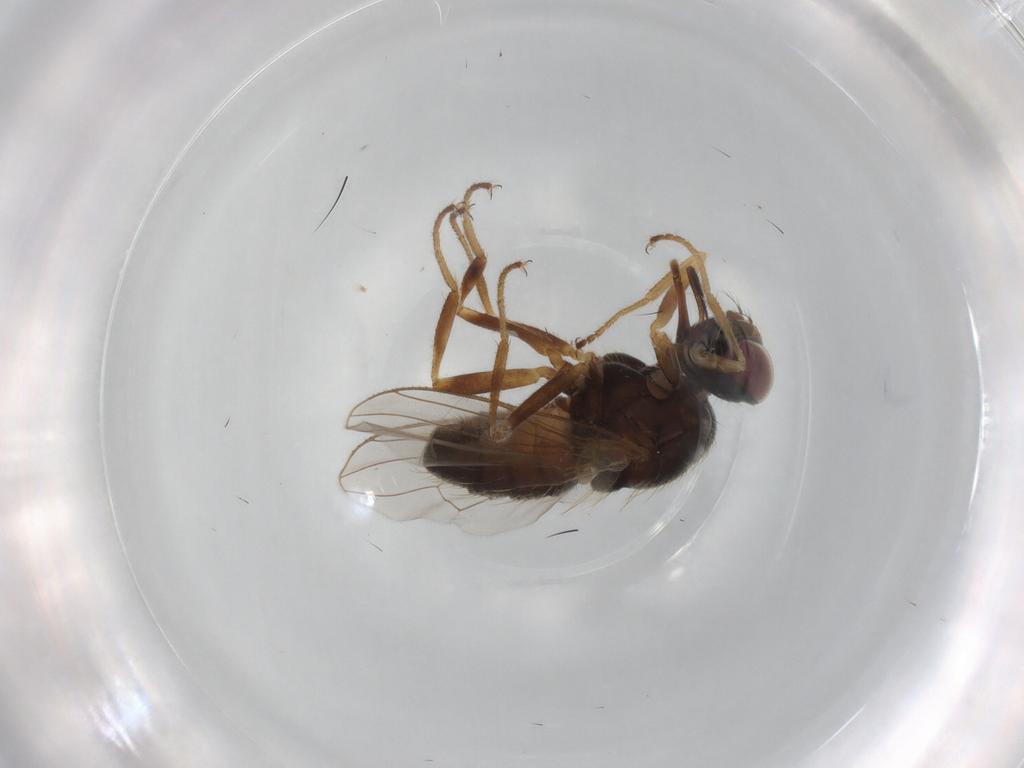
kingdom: Animalia
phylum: Arthropoda
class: Insecta
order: Diptera
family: Muscidae
